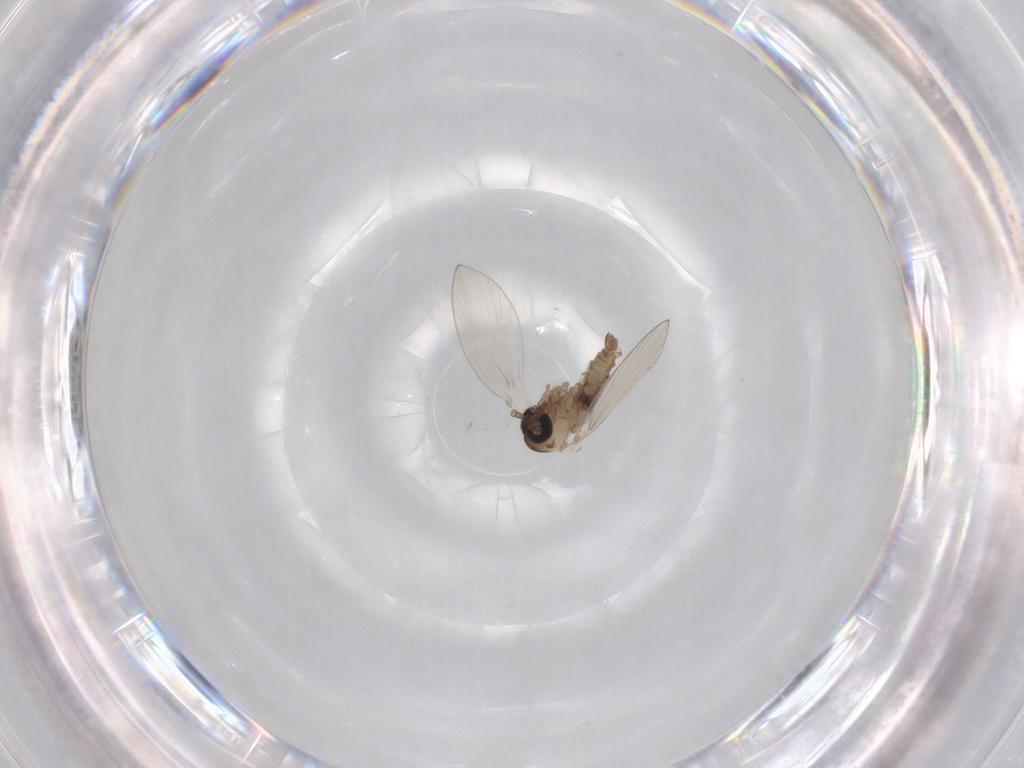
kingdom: Animalia
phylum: Arthropoda
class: Insecta
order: Diptera
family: Psychodidae
